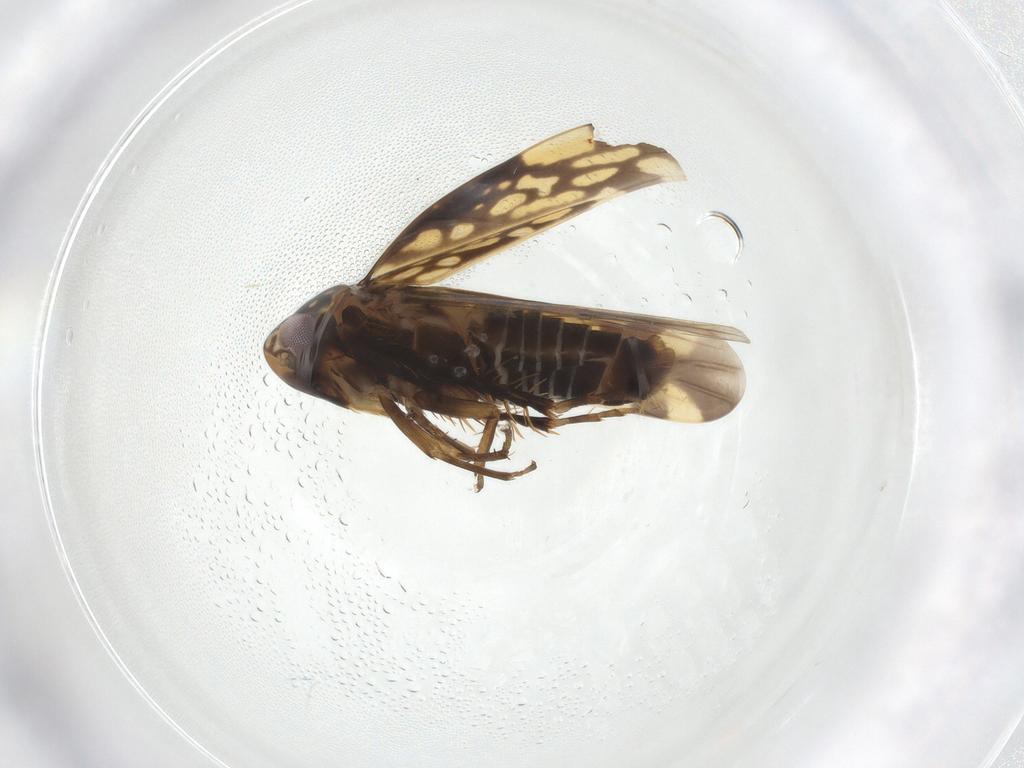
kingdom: Animalia
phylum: Arthropoda
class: Insecta
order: Hemiptera
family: Cicadellidae
